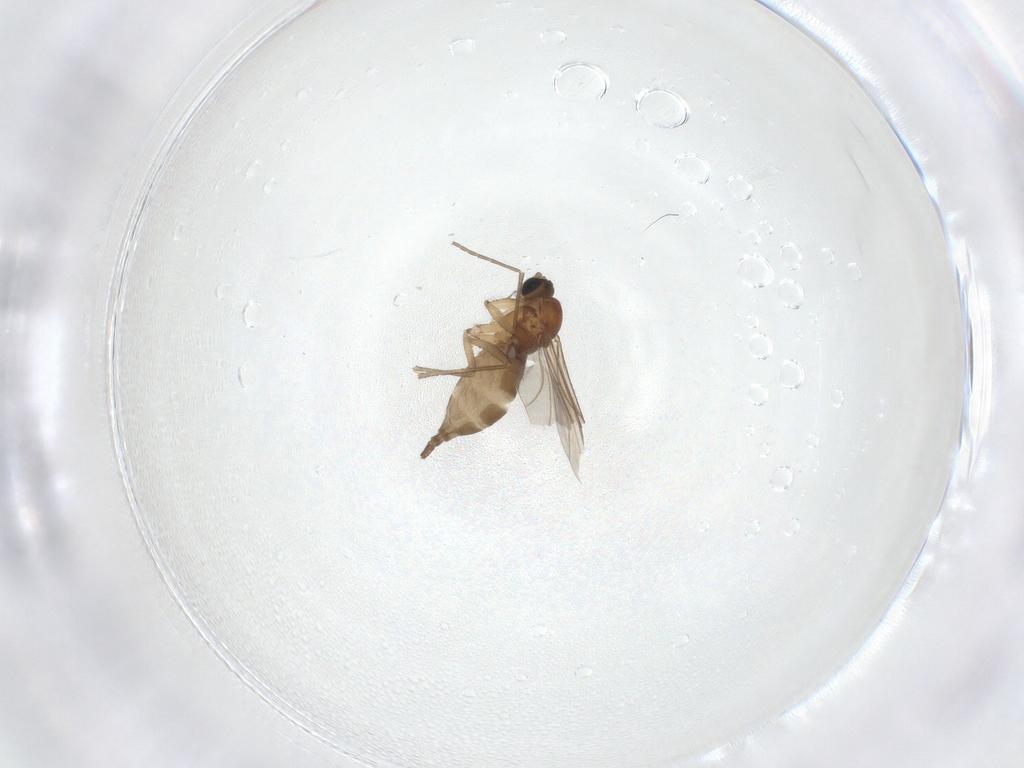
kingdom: Animalia
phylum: Arthropoda
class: Insecta
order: Diptera
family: Sciaridae
